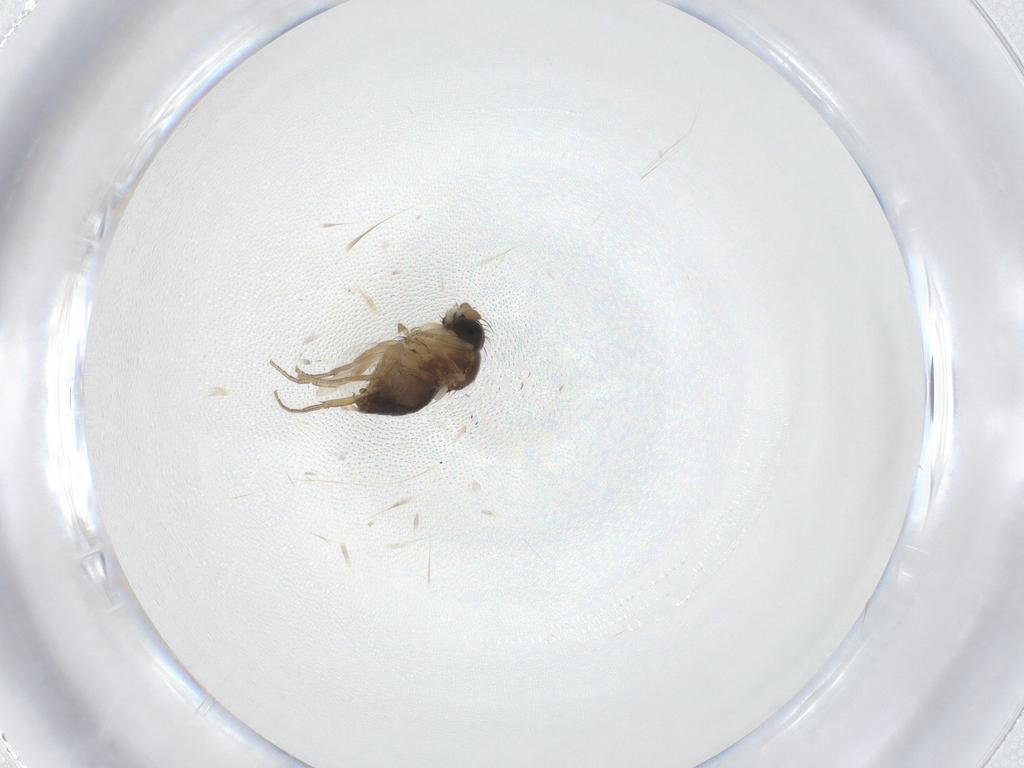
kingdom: Animalia
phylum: Arthropoda
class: Insecta
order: Diptera
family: Phoridae
